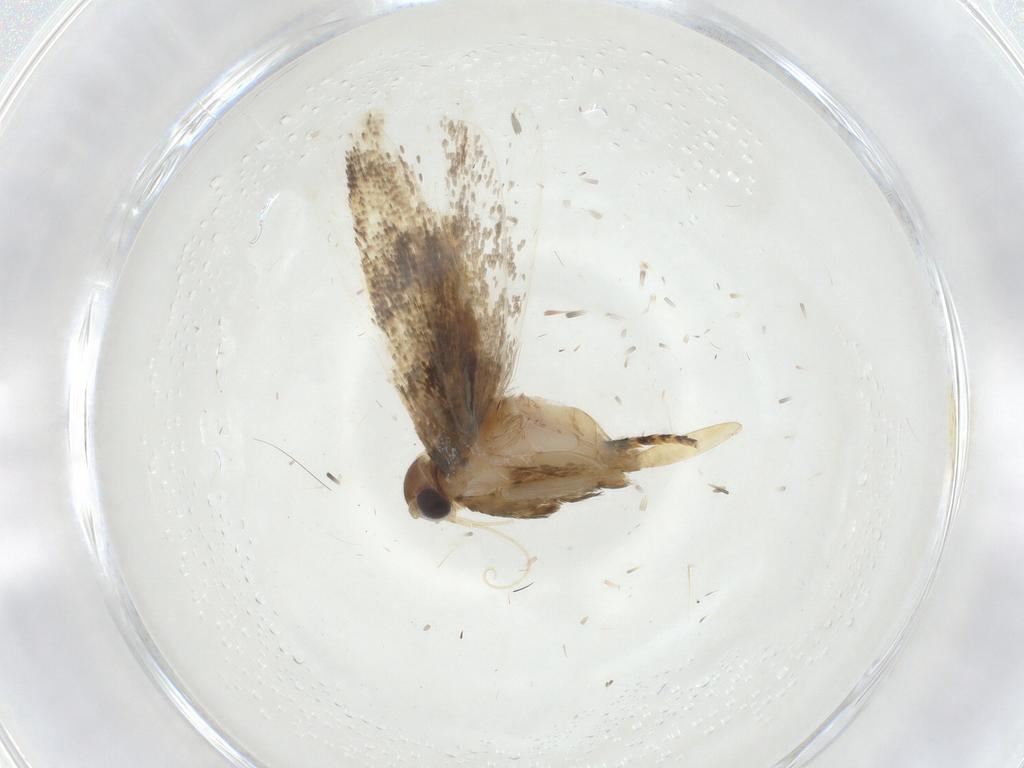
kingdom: Animalia
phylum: Arthropoda
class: Insecta
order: Lepidoptera
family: Gelechiidae
